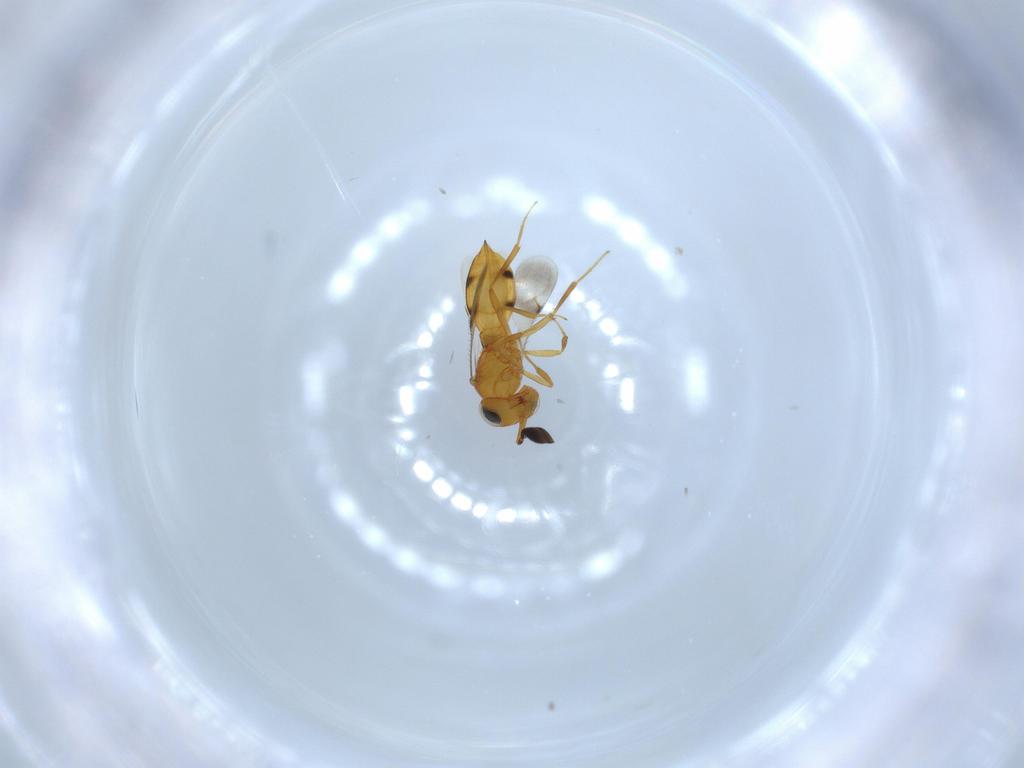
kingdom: Animalia
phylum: Arthropoda
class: Insecta
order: Hymenoptera
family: Scelionidae
